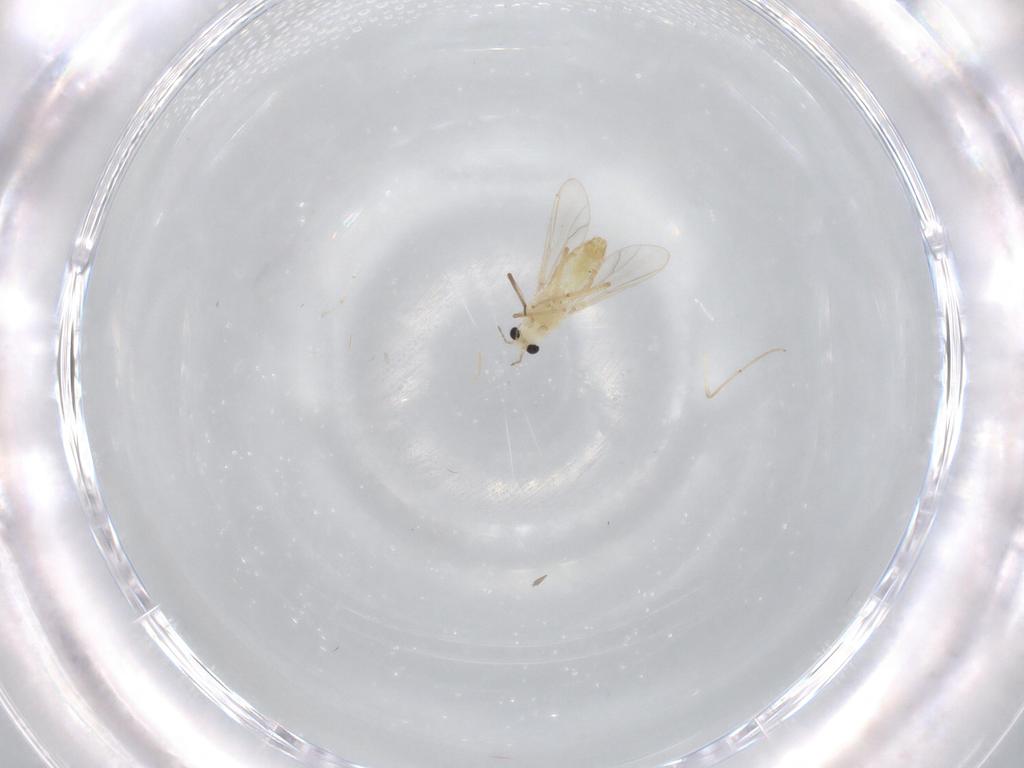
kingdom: Animalia
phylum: Arthropoda
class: Insecta
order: Diptera
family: Chironomidae
